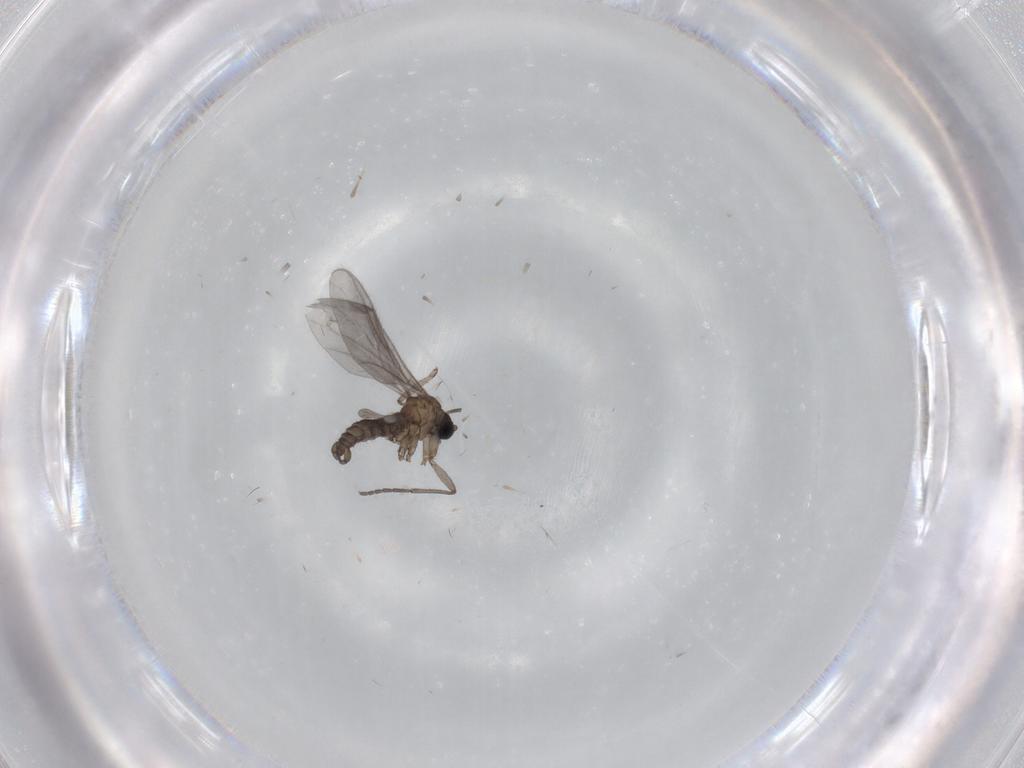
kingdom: Animalia
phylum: Arthropoda
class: Insecta
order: Diptera
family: Sciaridae
